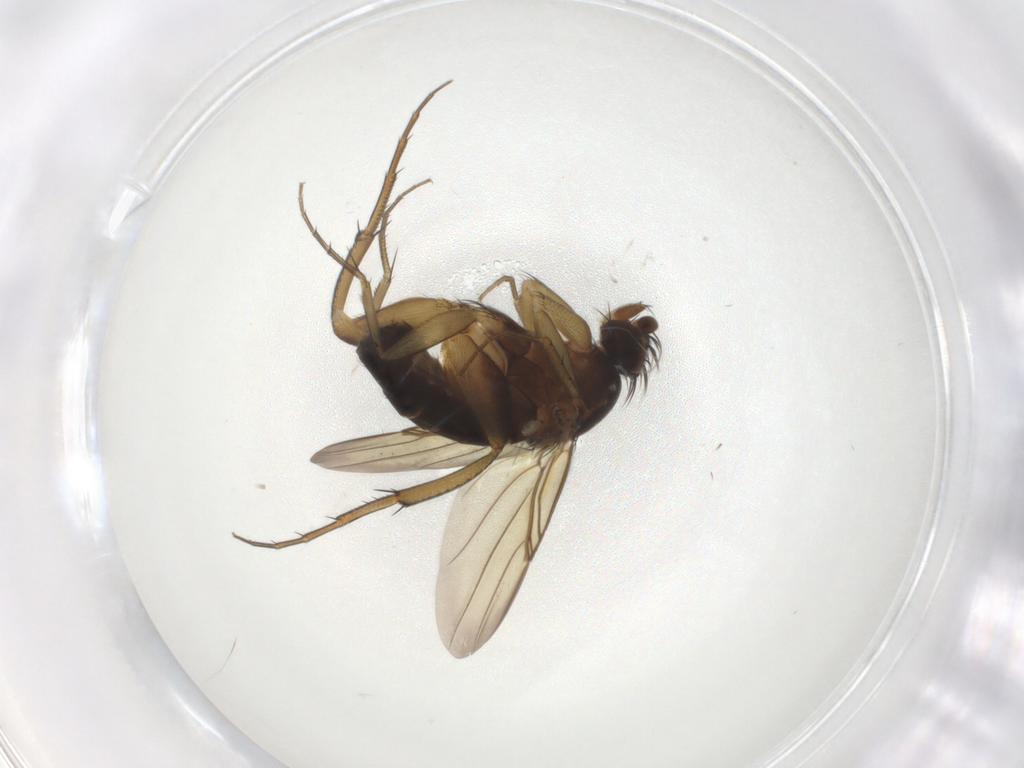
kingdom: Animalia
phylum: Arthropoda
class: Insecta
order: Diptera
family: Phoridae
